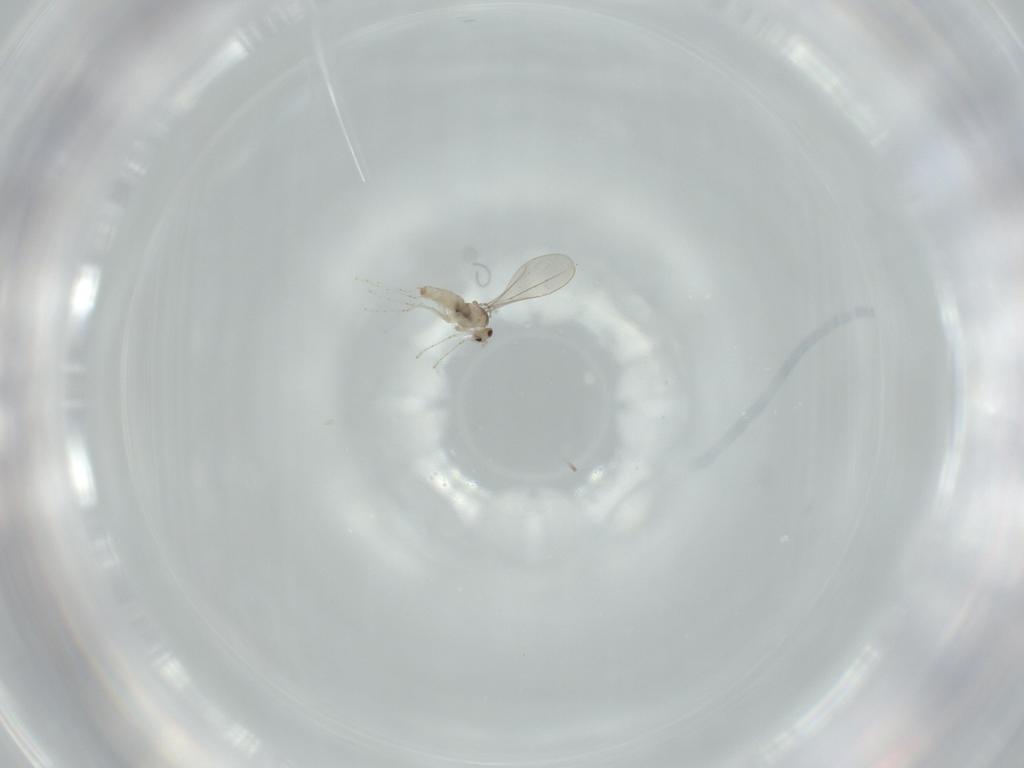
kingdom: Animalia
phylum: Arthropoda
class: Insecta
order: Diptera
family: Cecidomyiidae
